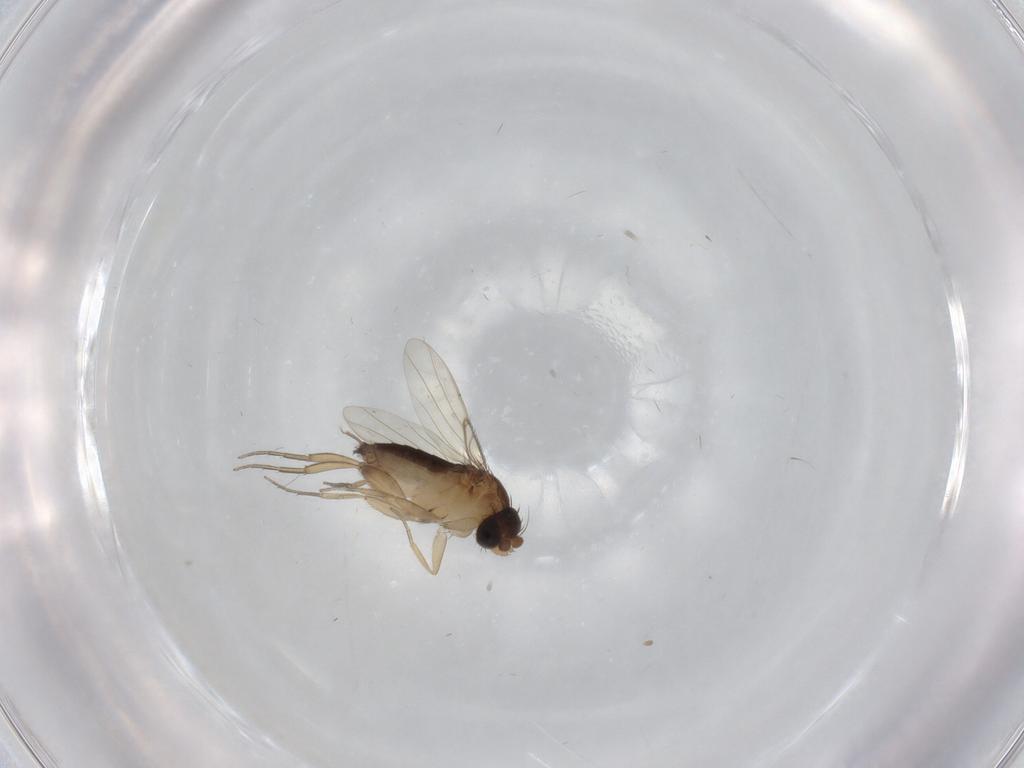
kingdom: Animalia
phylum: Arthropoda
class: Insecta
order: Diptera
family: Phoridae
